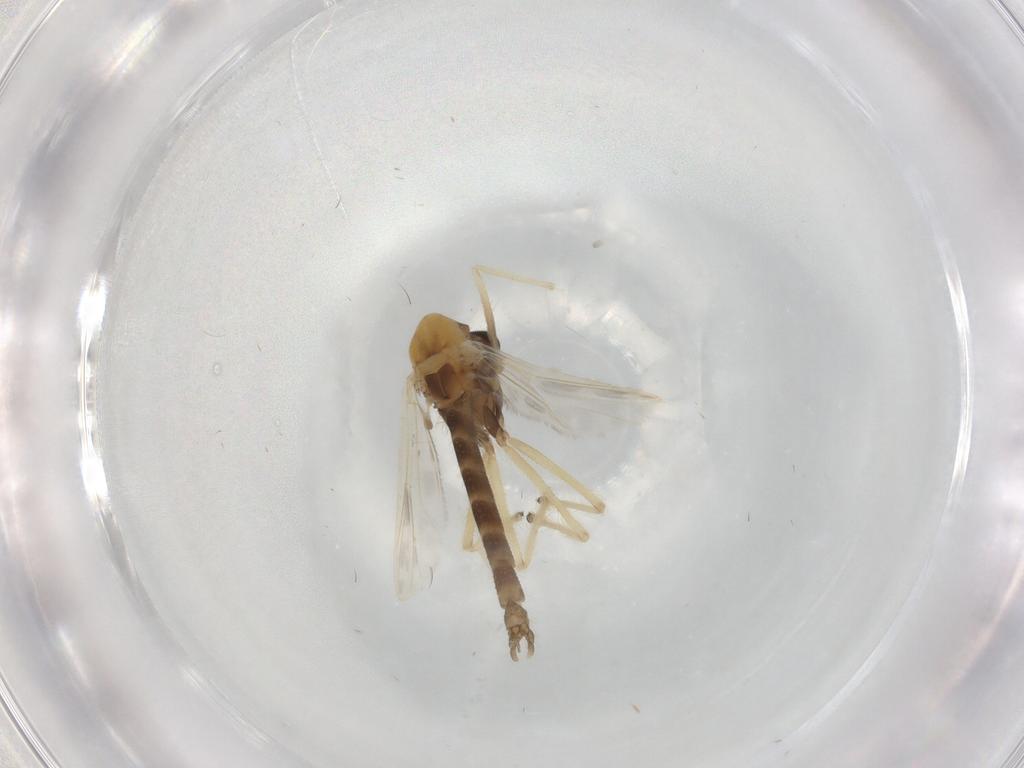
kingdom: Animalia
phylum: Arthropoda
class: Insecta
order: Diptera
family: Chironomidae
